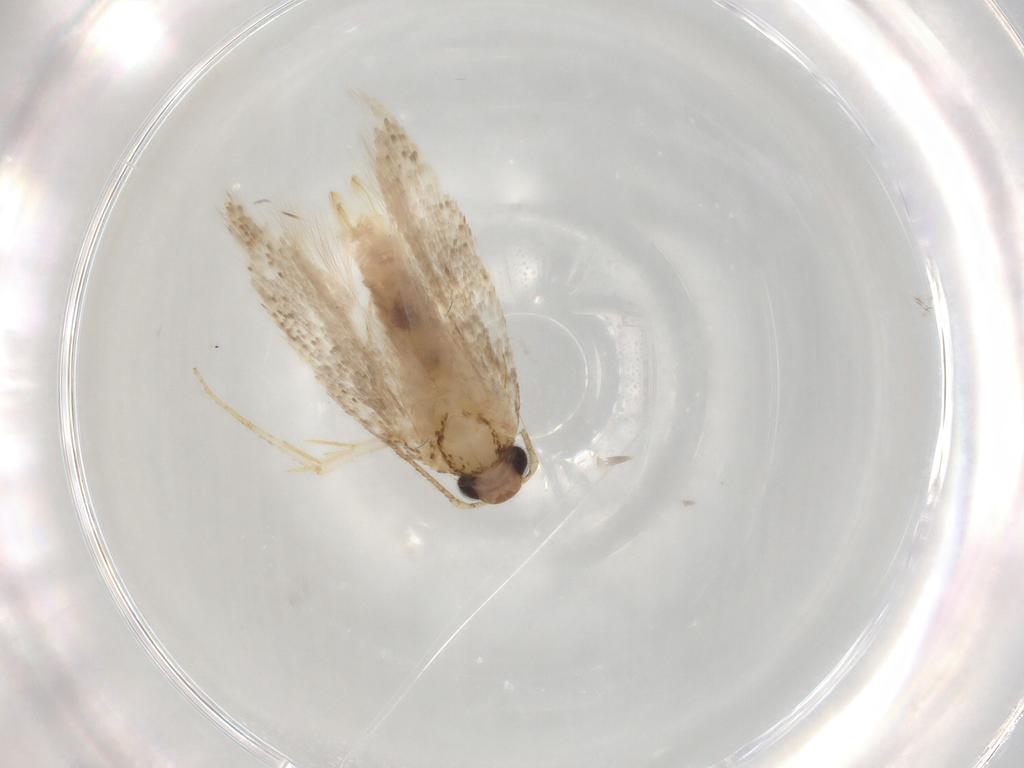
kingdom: Animalia
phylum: Arthropoda
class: Insecta
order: Lepidoptera
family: Gelechiidae
